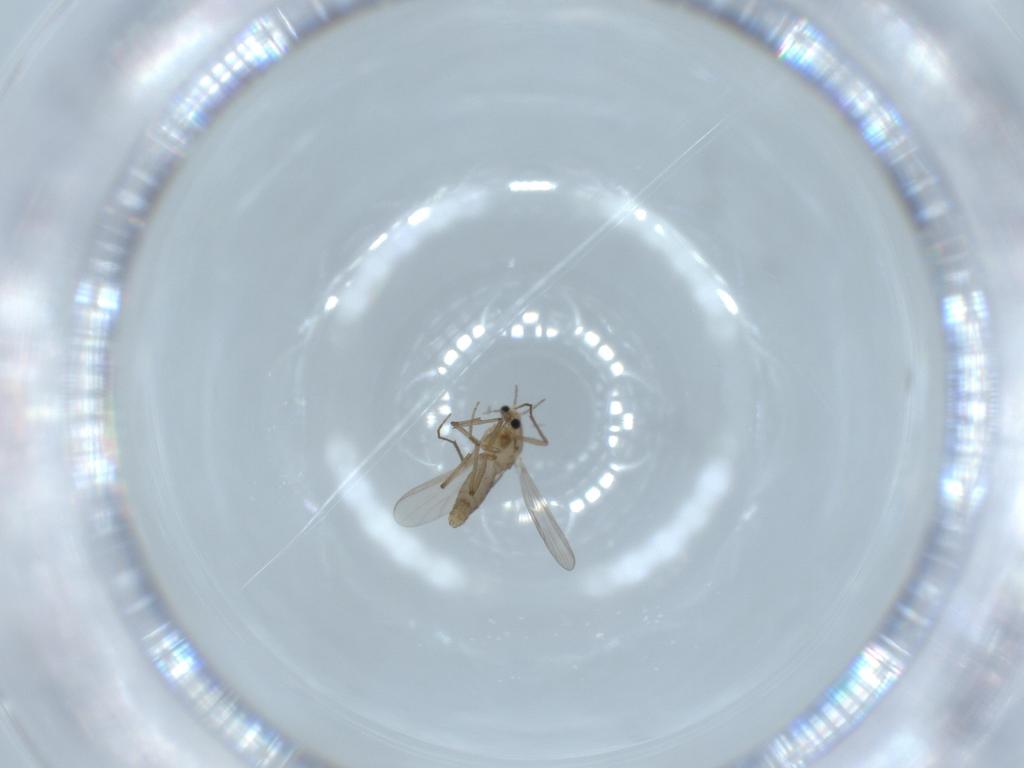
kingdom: Animalia
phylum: Arthropoda
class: Insecta
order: Diptera
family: Chironomidae
